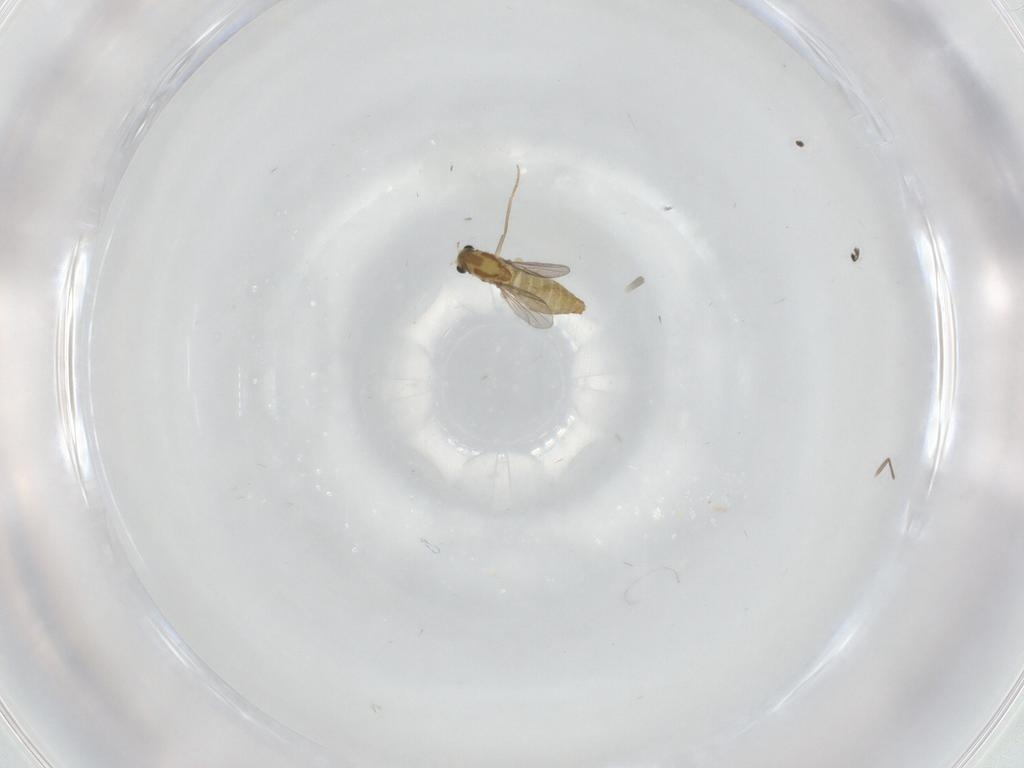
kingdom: Animalia
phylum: Arthropoda
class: Insecta
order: Diptera
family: Chironomidae
